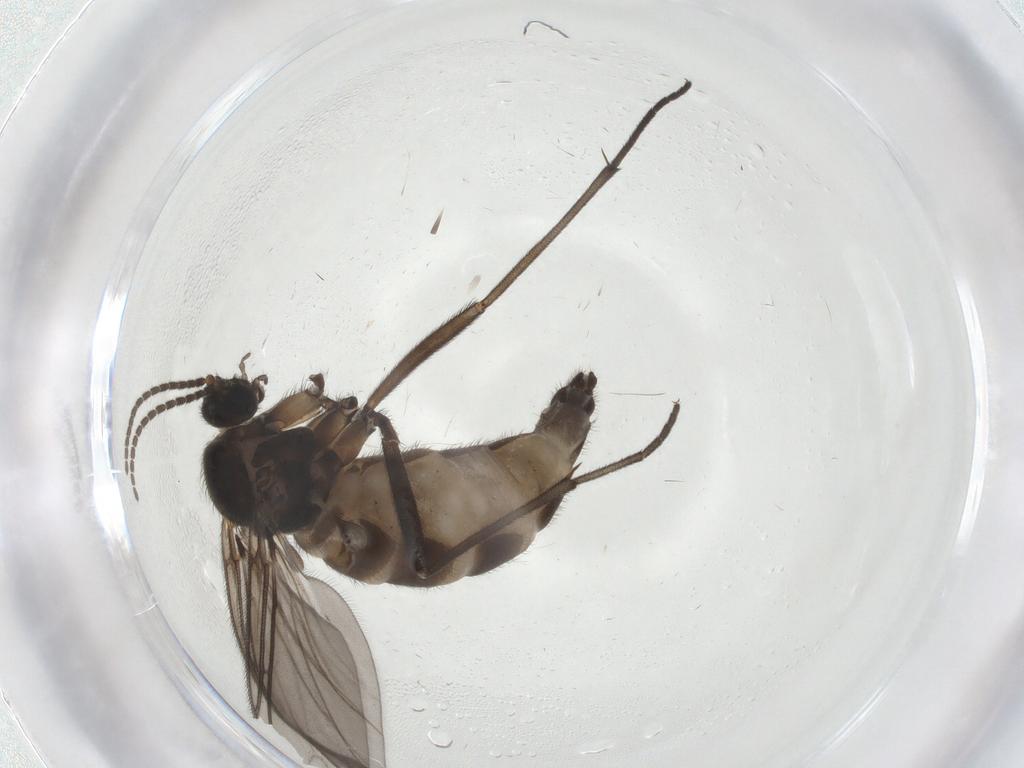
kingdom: Animalia
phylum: Arthropoda
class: Insecta
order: Diptera
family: Sciaridae
